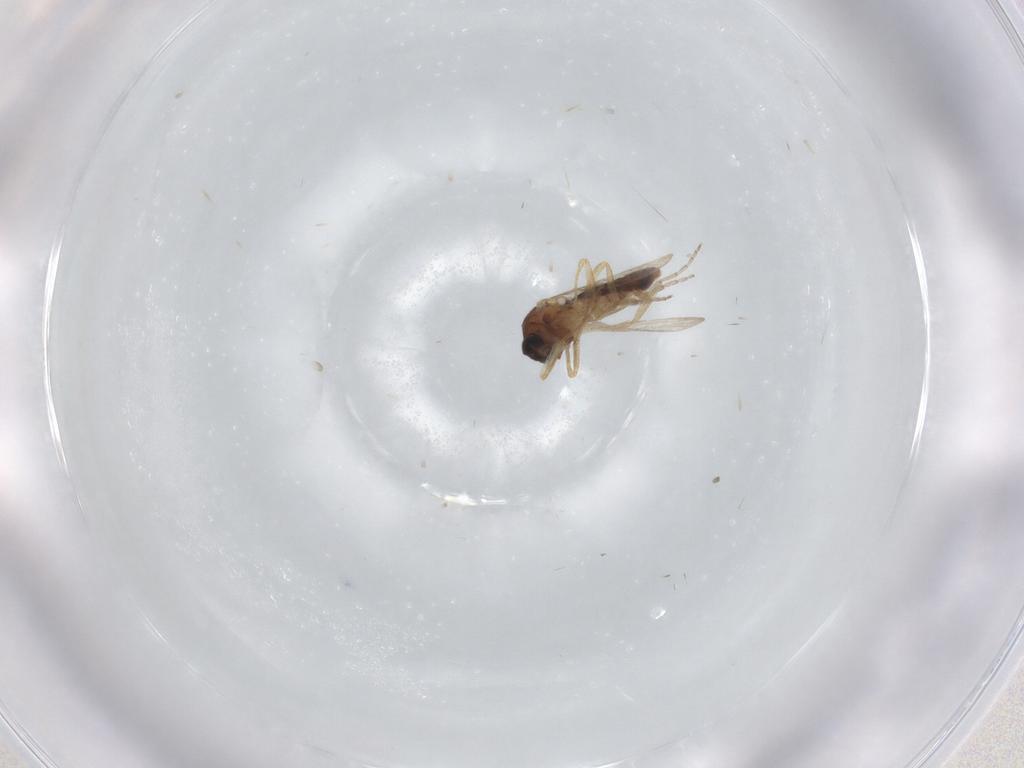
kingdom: Animalia
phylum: Arthropoda
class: Insecta
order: Diptera
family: Ceratopogonidae
